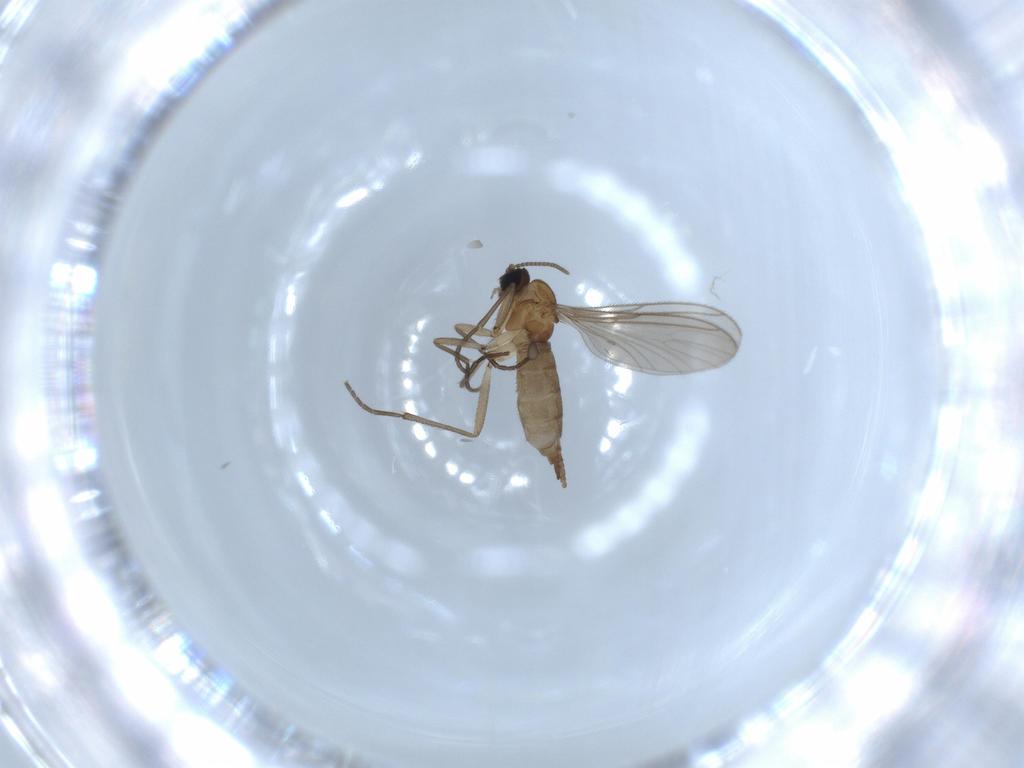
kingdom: Animalia
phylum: Arthropoda
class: Insecta
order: Diptera
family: Sciaridae
